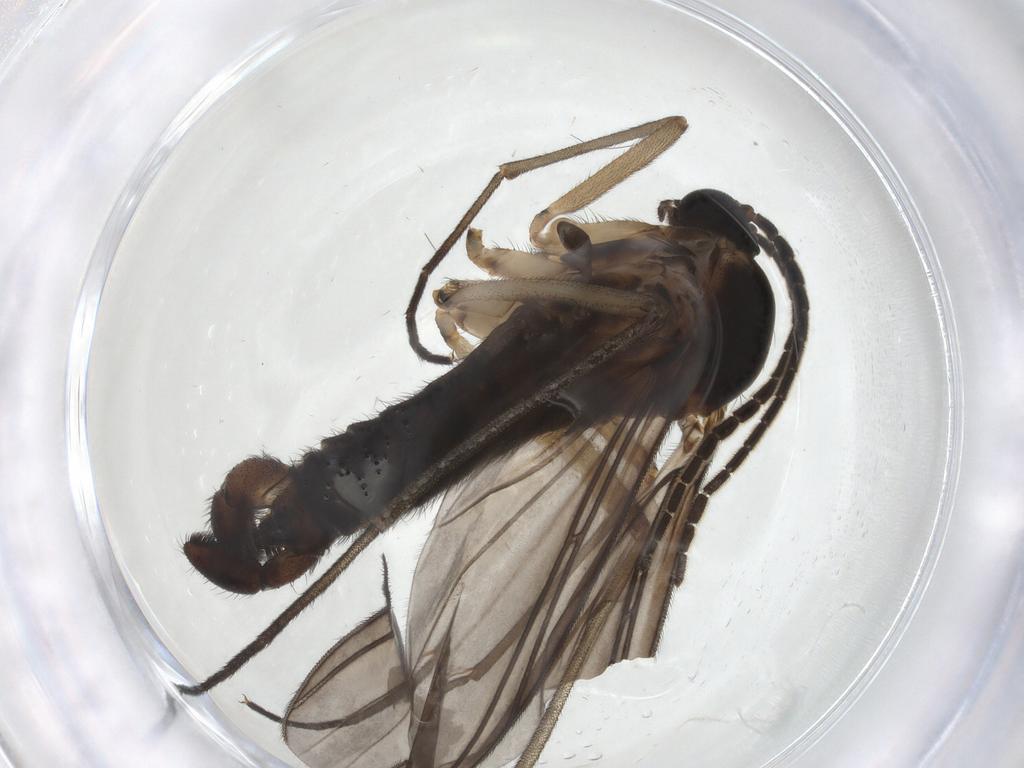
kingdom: Animalia
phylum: Arthropoda
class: Insecta
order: Diptera
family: Sciaridae
